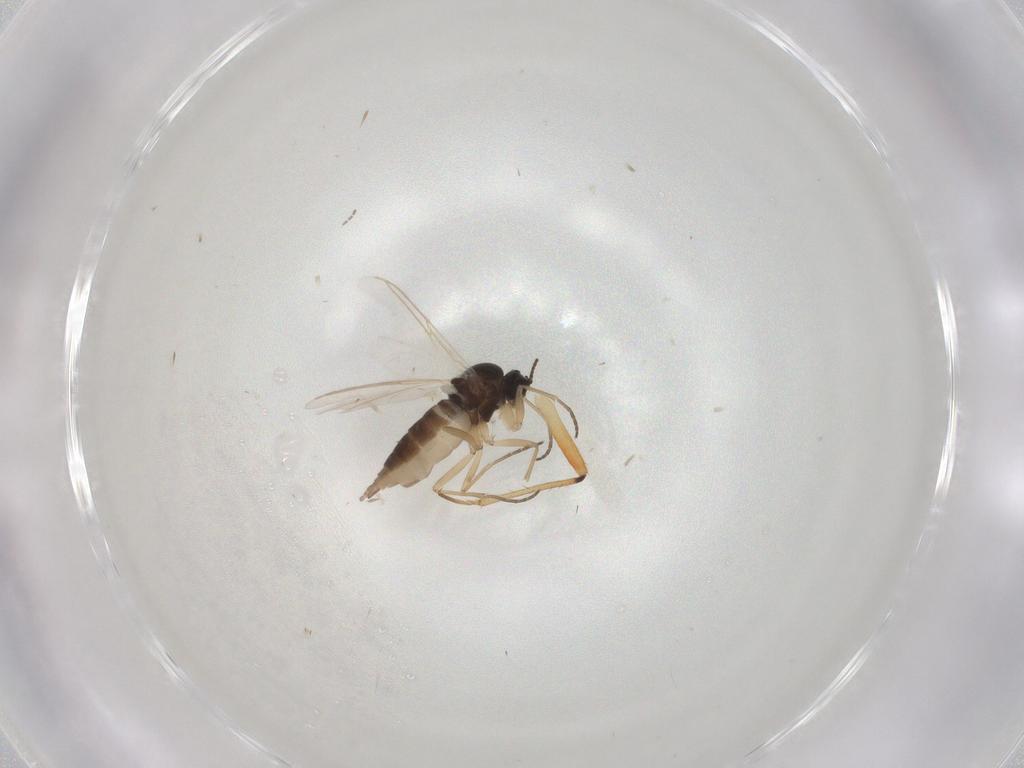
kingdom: Animalia
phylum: Arthropoda
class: Insecta
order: Diptera
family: Sciaridae
